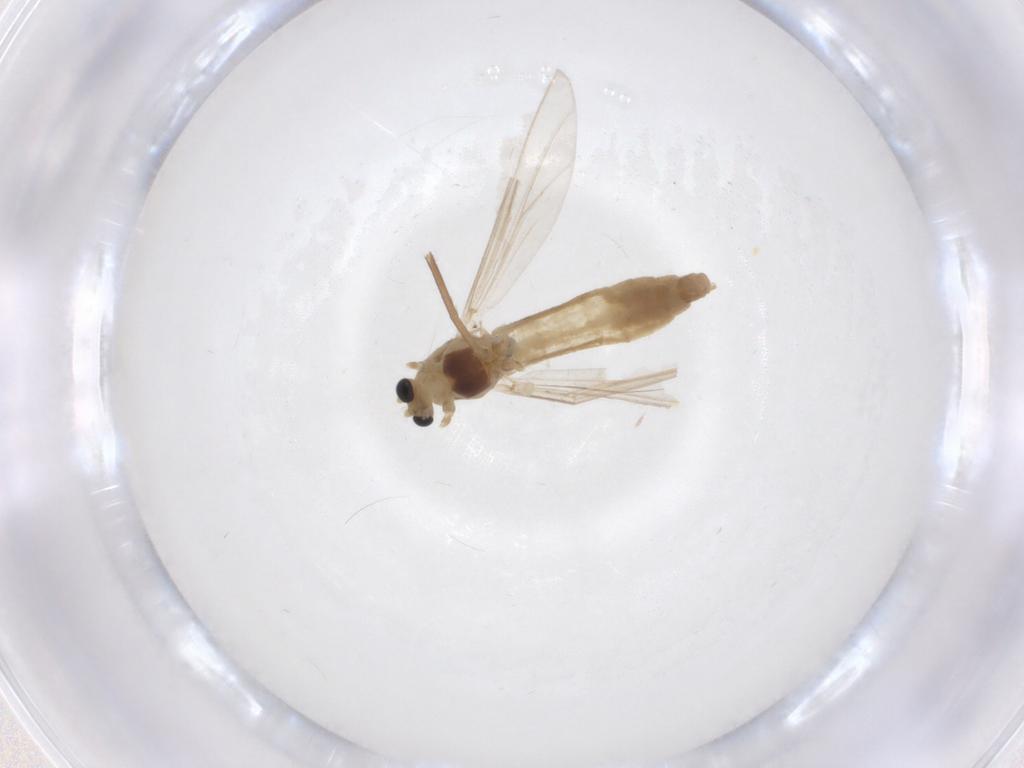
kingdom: Animalia
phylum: Arthropoda
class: Insecta
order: Diptera
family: Chironomidae
